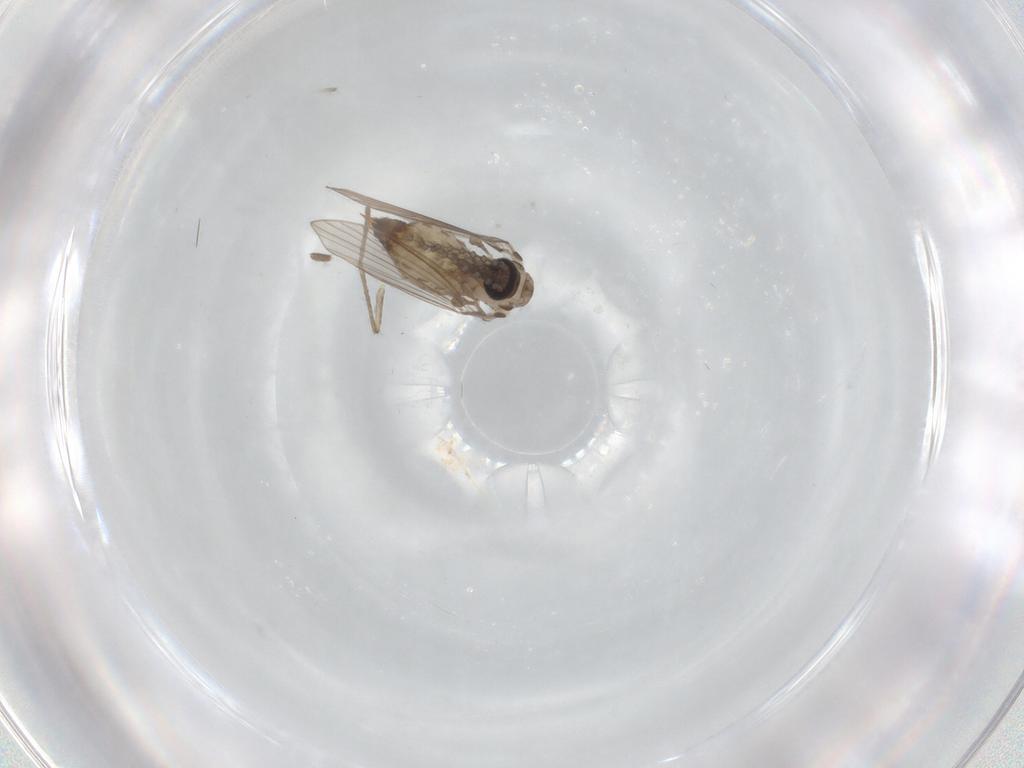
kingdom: Animalia
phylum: Arthropoda
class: Insecta
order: Diptera
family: Psychodidae
